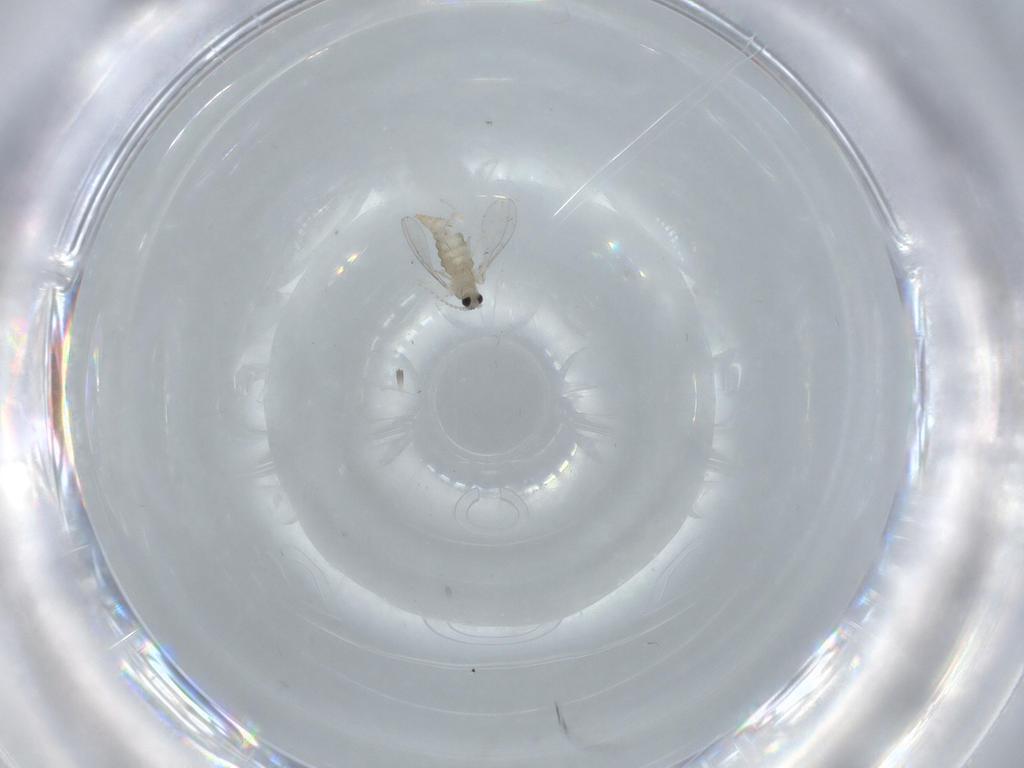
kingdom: Animalia
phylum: Arthropoda
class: Insecta
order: Diptera
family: Cecidomyiidae
